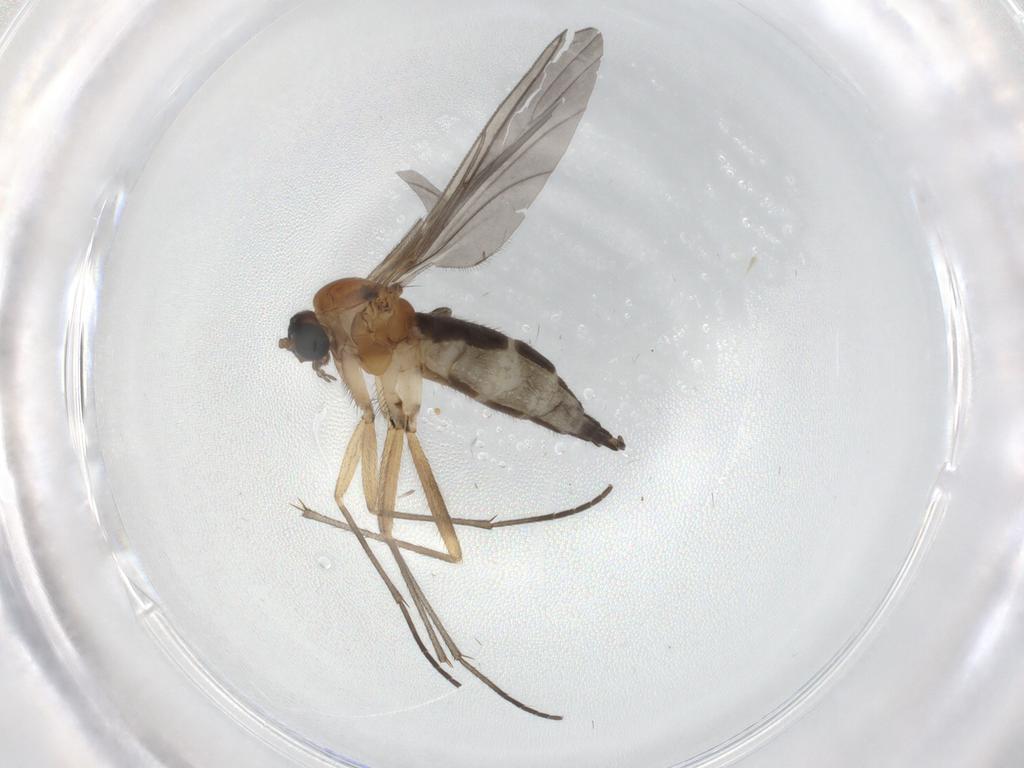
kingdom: Animalia
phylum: Arthropoda
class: Insecta
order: Diptera
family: Sciaridae
